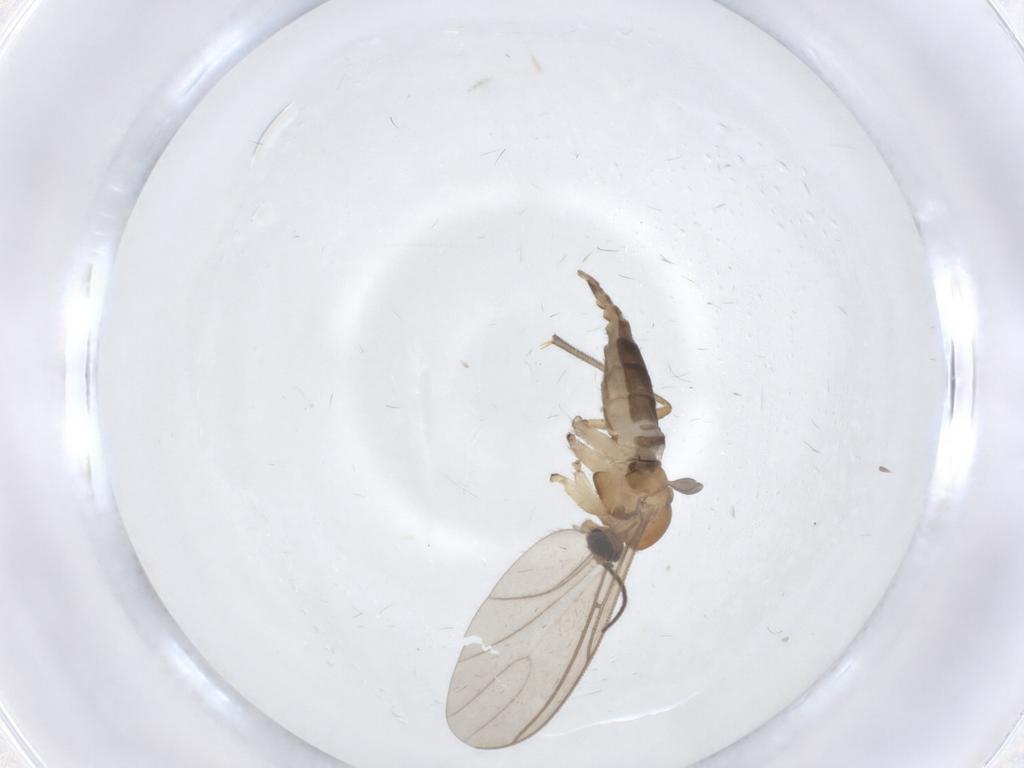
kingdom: Animalia
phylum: Arthropoda
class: Insecta
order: Diptera
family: Sciaridae
